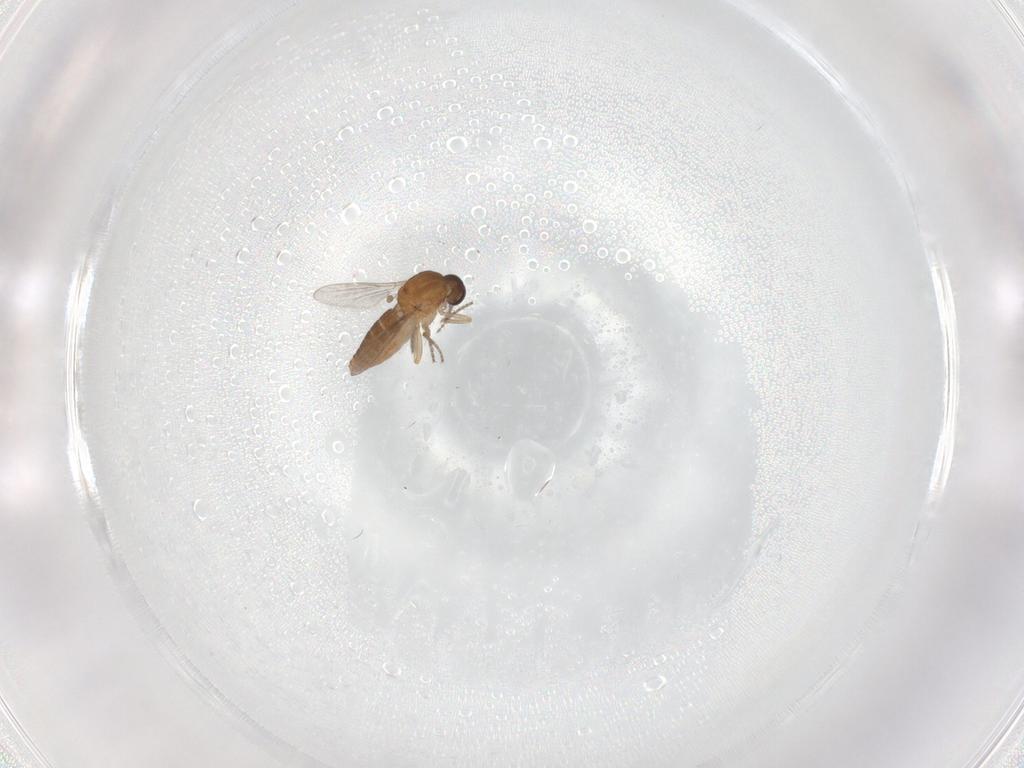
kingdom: Animalia
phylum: Arthropoda
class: Insecta
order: Diptera
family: Ceratopogonidae
